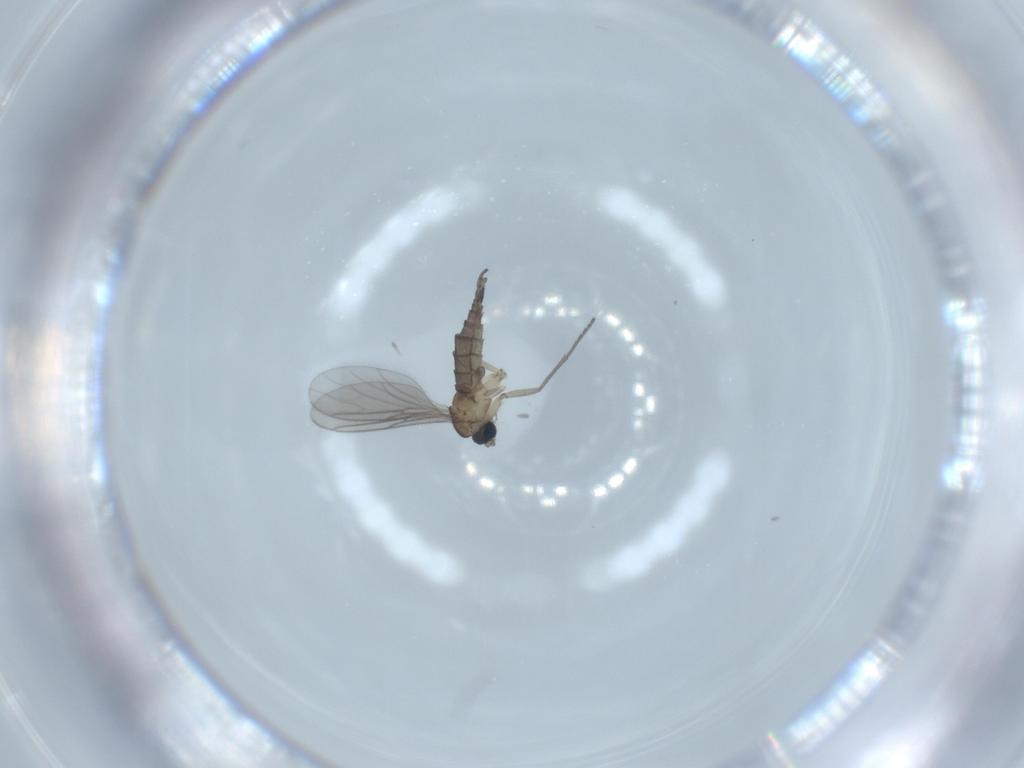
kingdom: Animalia
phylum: Arthropoda
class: Insecta
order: Diptera
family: Sciaridae
